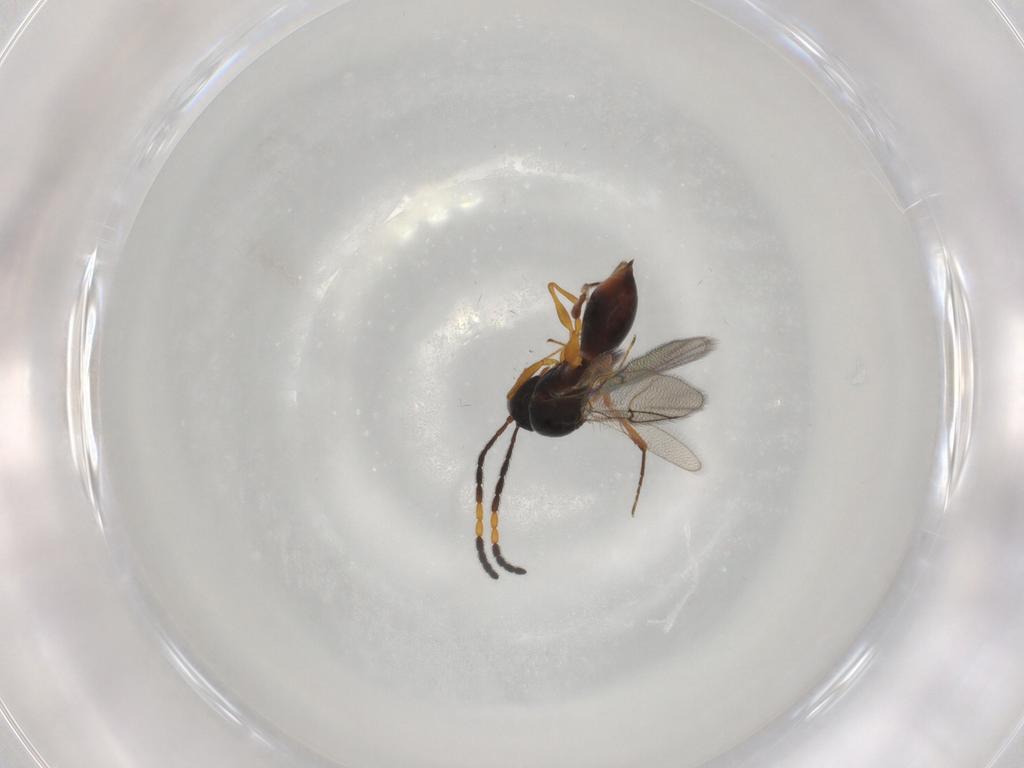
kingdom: Animalia
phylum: Arthropoda
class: Insecta
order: Hymenoptera
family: Figitidae
